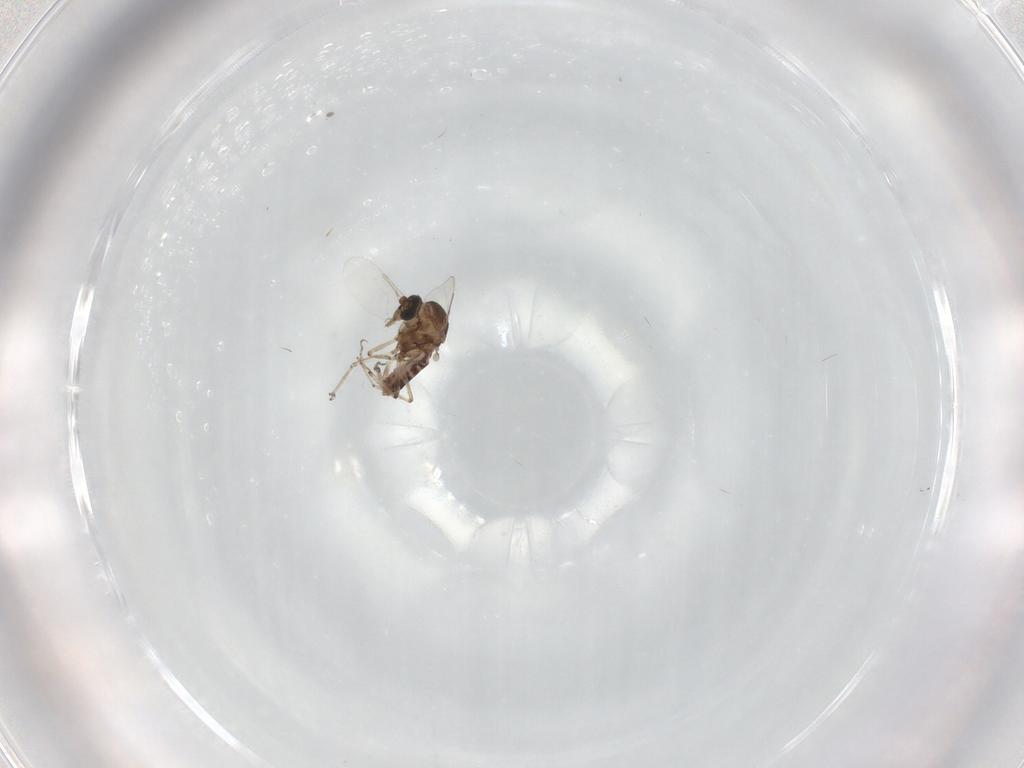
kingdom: Animalia
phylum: Arthropoda
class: Insecta
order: Diptera
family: Ceratopogonidae
